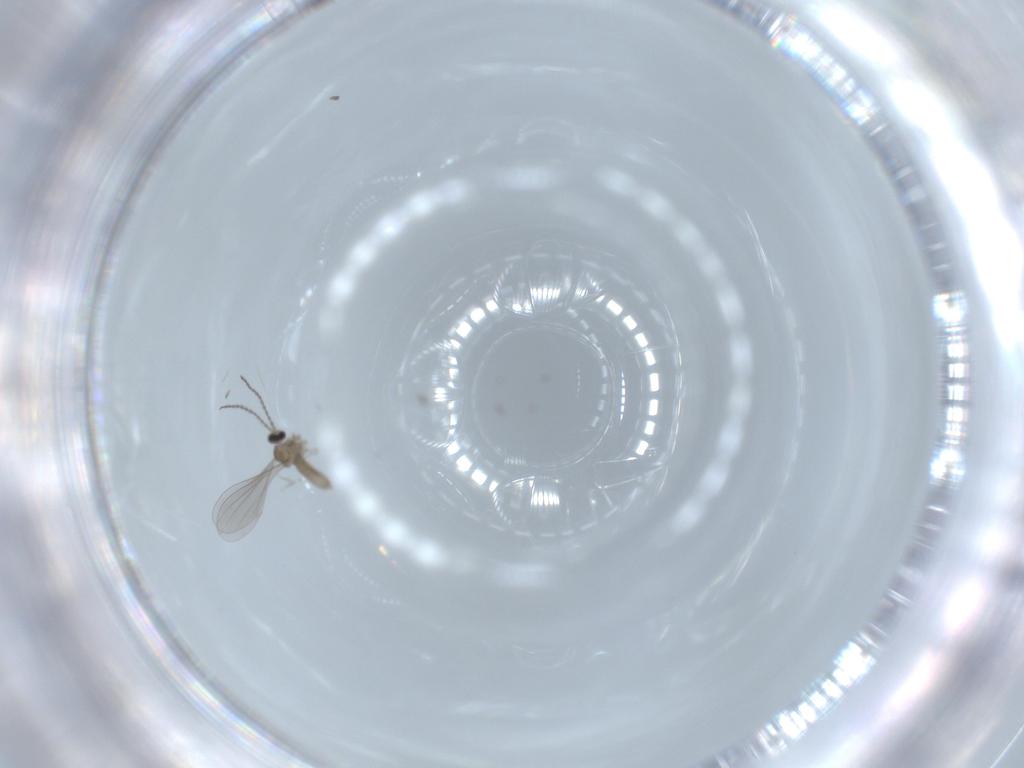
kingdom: Animalia
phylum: Arthropoda
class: Insecta
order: Diptera
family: Cecidomyiidae
